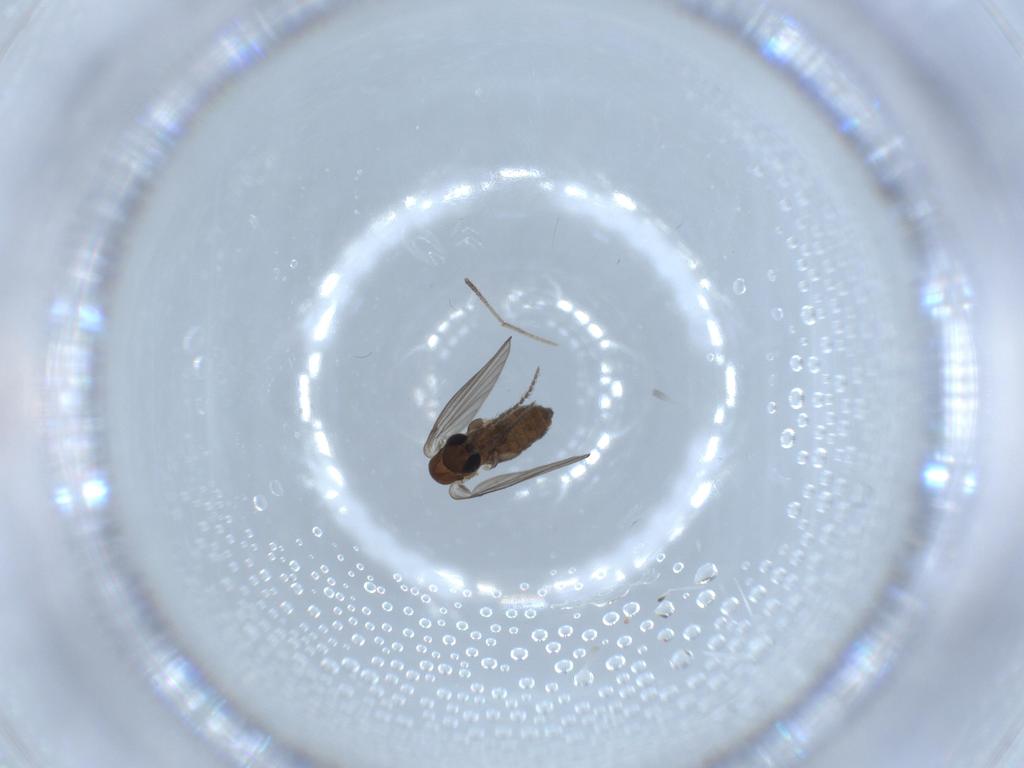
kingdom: Animalia
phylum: Arthropoda
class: Insecta
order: Diptera
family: Psychodidae
